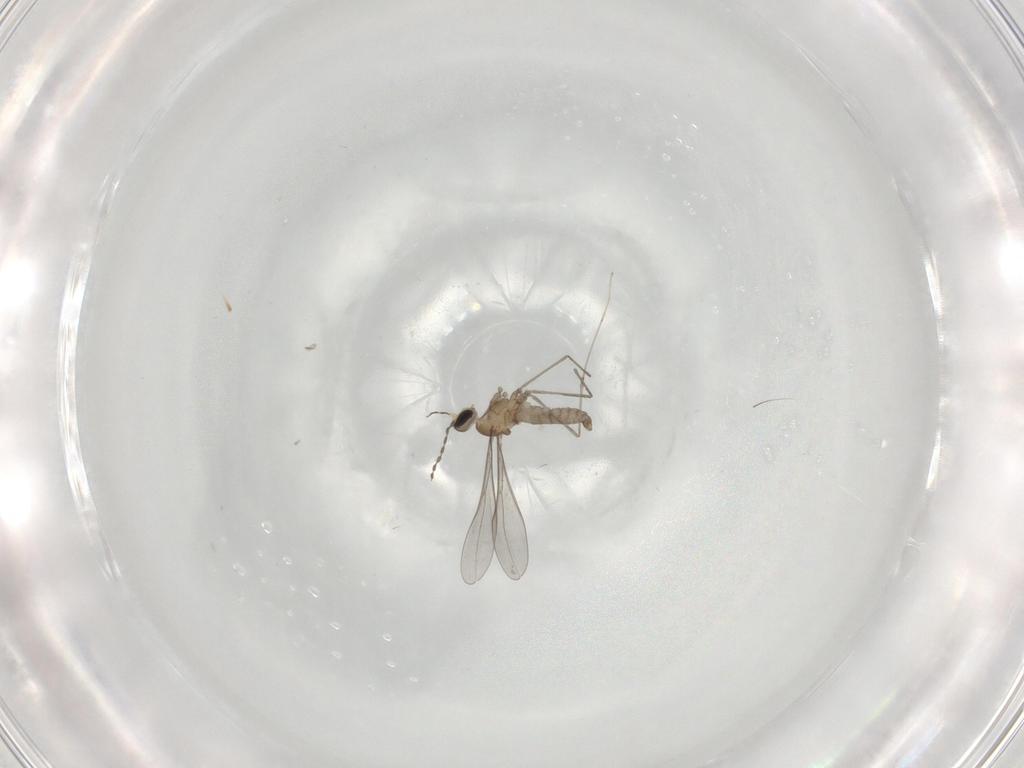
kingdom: Animalia
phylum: Arthropoda
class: Insecta
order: Diptera
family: Cecidomyiidae
